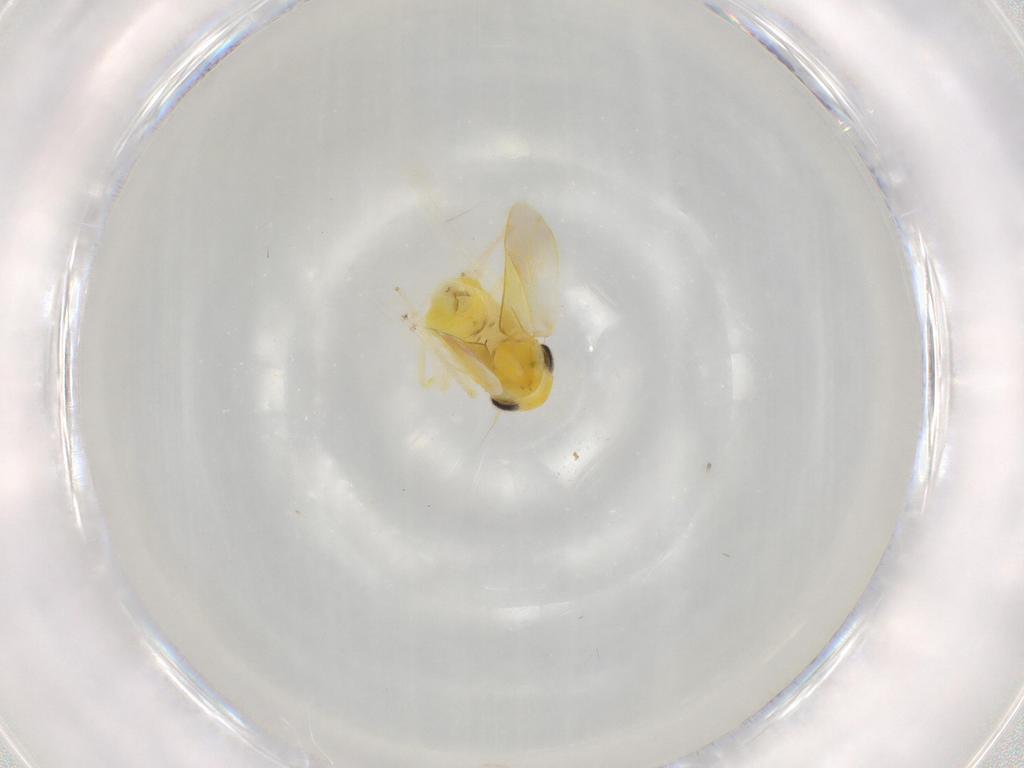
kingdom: Animalia
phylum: Arthropoda
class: Insecta
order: Hemiptera
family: Cicadellidae
